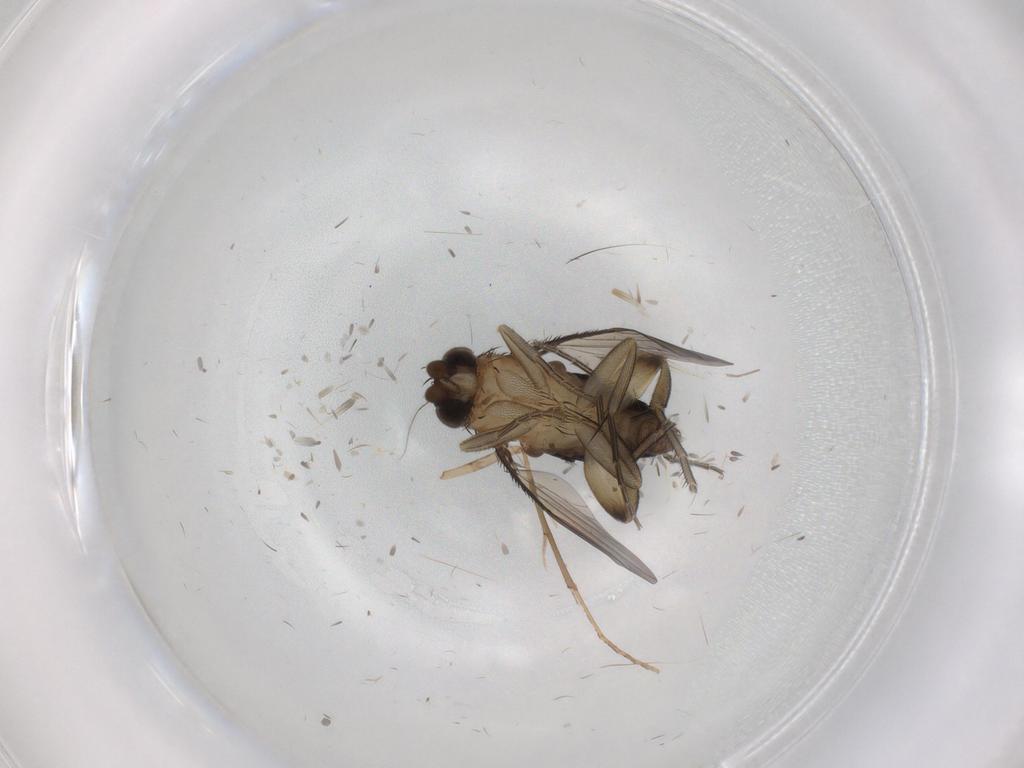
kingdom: Animalia
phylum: Arthropoda
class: Insecta
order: Diptera
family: Phoridae
